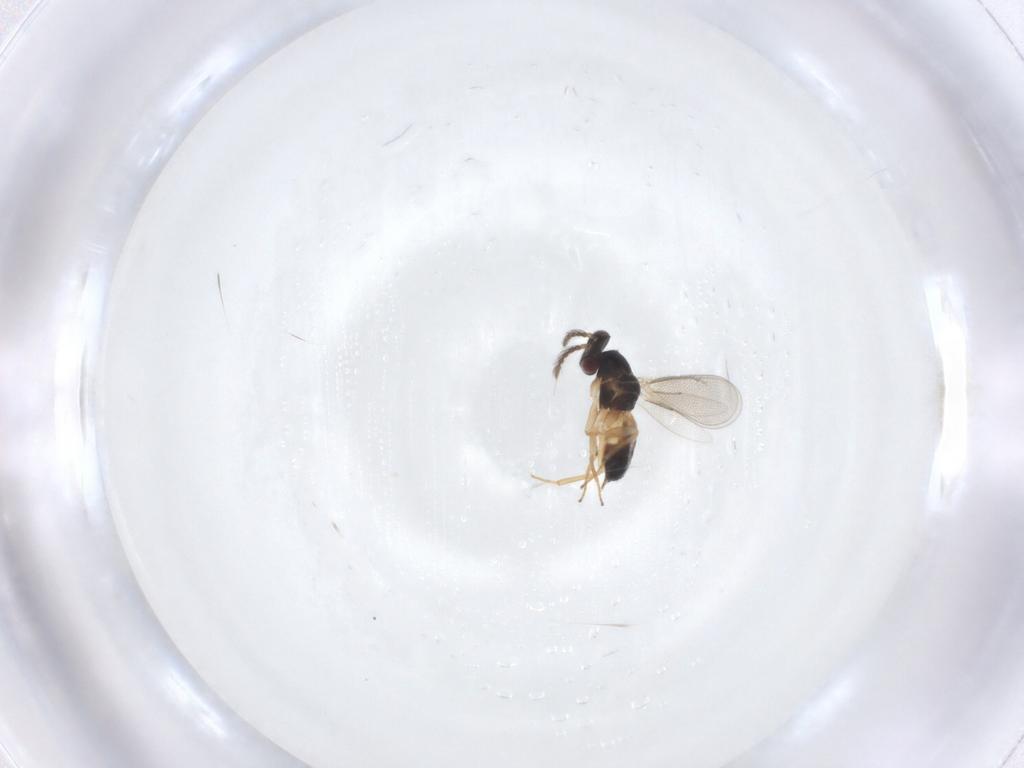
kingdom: Animalia
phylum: Arthropoda
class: Insecta
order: Hymenoptera
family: Eulophidae
